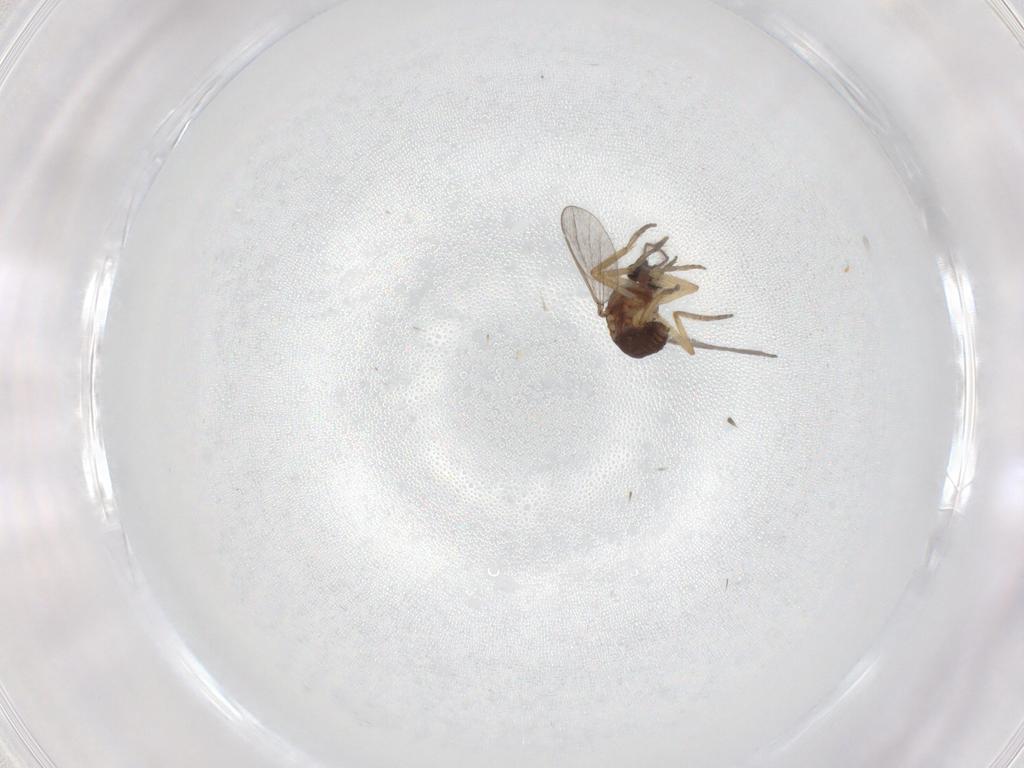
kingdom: Animalia
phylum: Arthropoda
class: Insecta
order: Diptera
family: Cecidomyiidae
